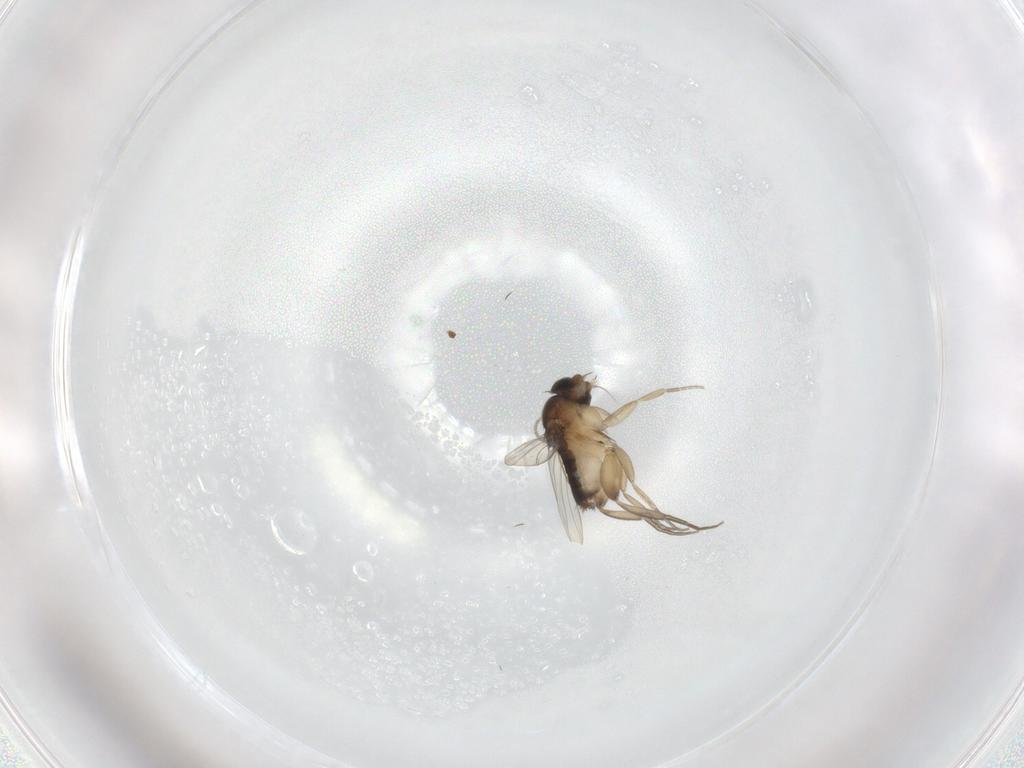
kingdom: Animalia
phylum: Arthropoda
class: Insecta
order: Diptera
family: Phoridae
